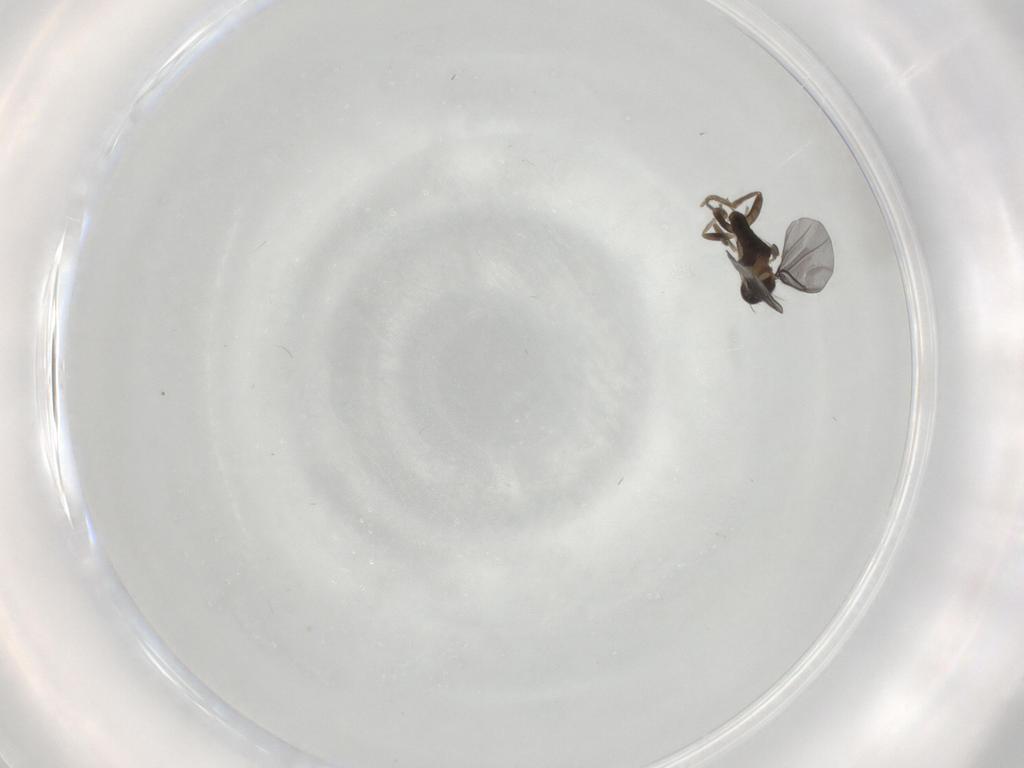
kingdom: Animalia
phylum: Arthropoda
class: Insecta
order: Diptera
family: Phoridae
